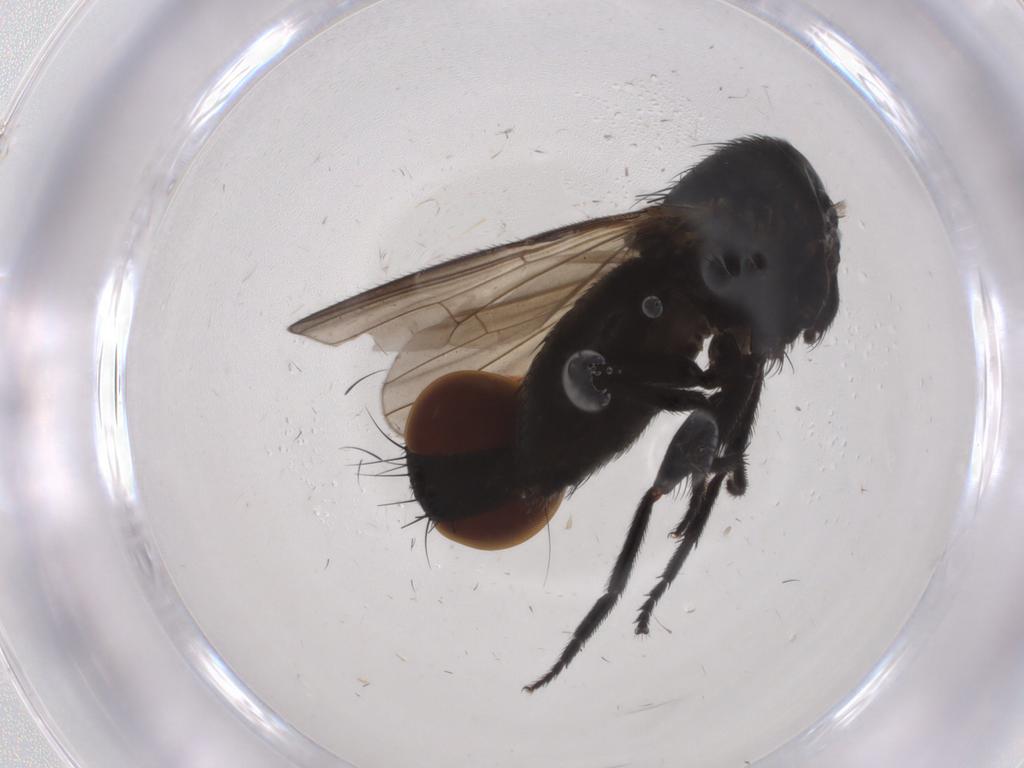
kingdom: Animalia
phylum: Arthropoda
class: Insecta
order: Diptera
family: Milichiidae
